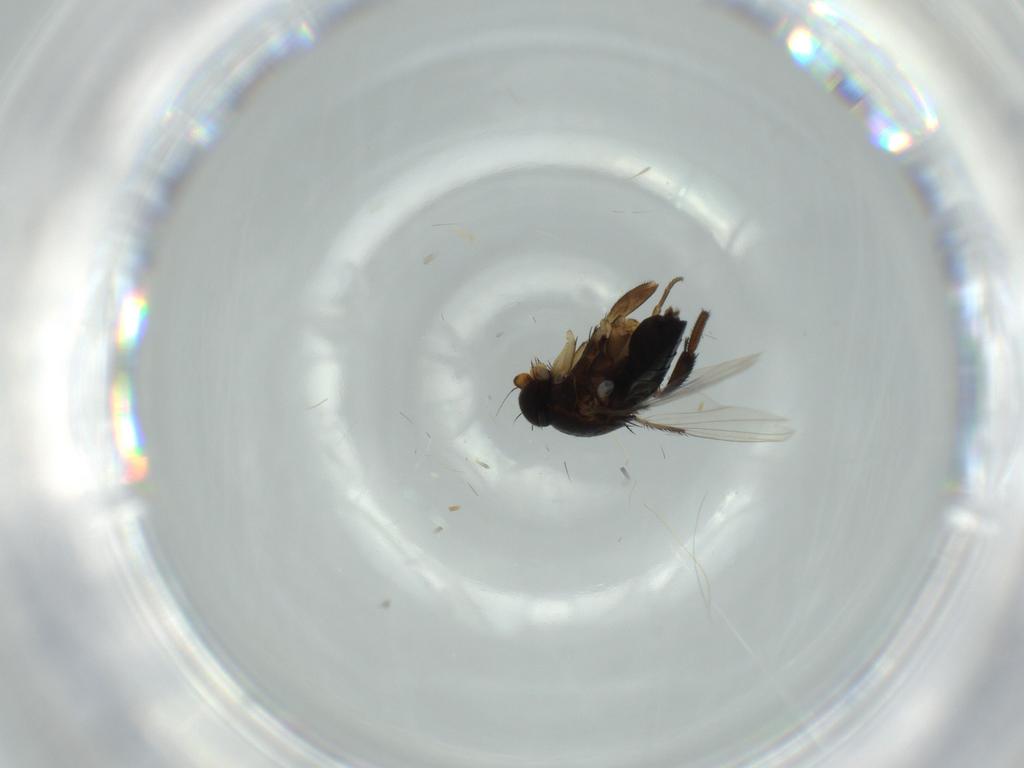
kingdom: Animalia
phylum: Arthropoda
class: Insecta
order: Diptera
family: Phoridae
